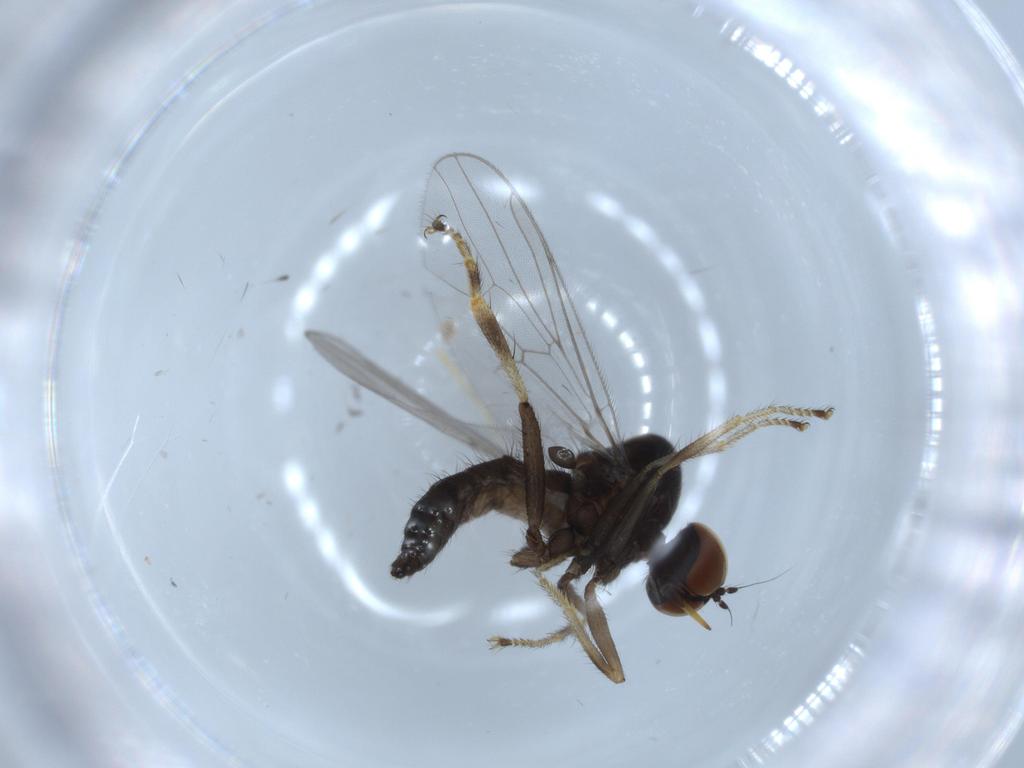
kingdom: Animalia
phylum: Arthropoda
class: Insecta
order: Diptera
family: Hybotidae
